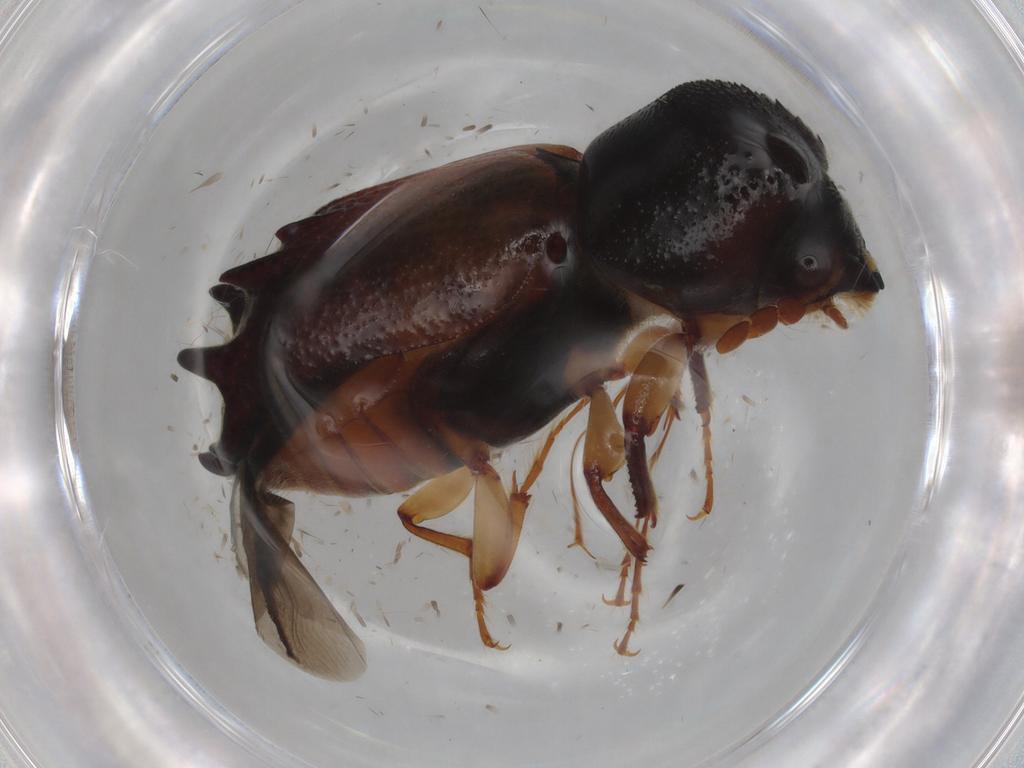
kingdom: Animalia
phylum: Arthropoda
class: Insecta
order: Coleoptera
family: Bostrichidae
